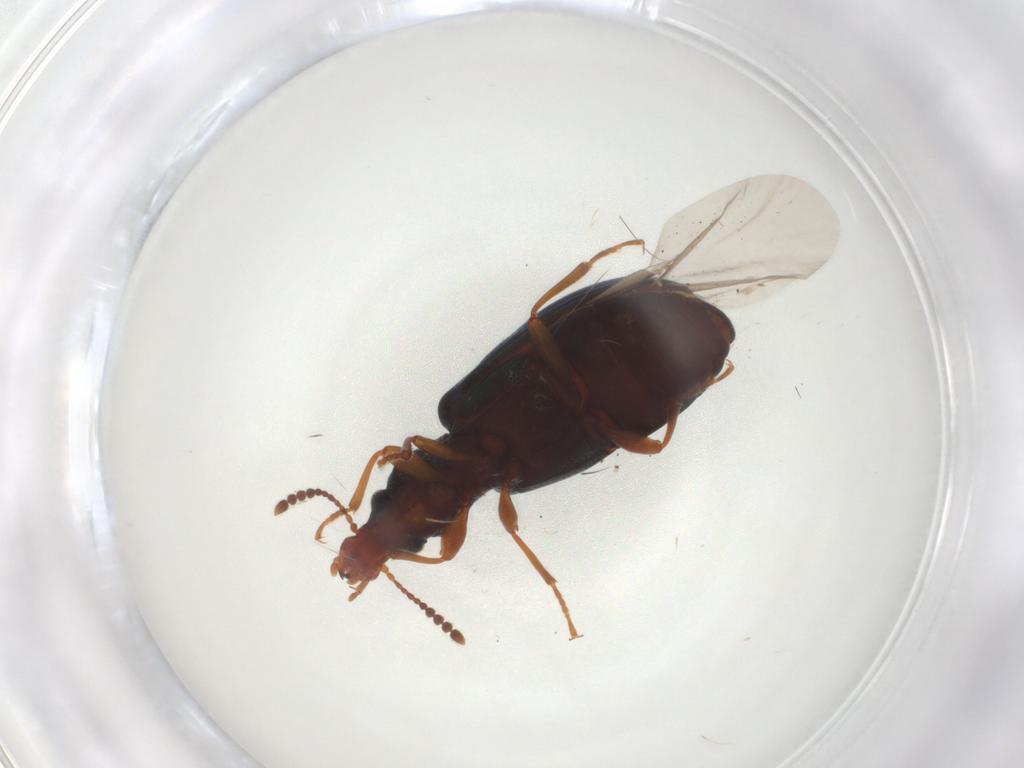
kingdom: Animalia
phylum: Arthropoda
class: Insecta
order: Coleoptera
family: Salpingidae
